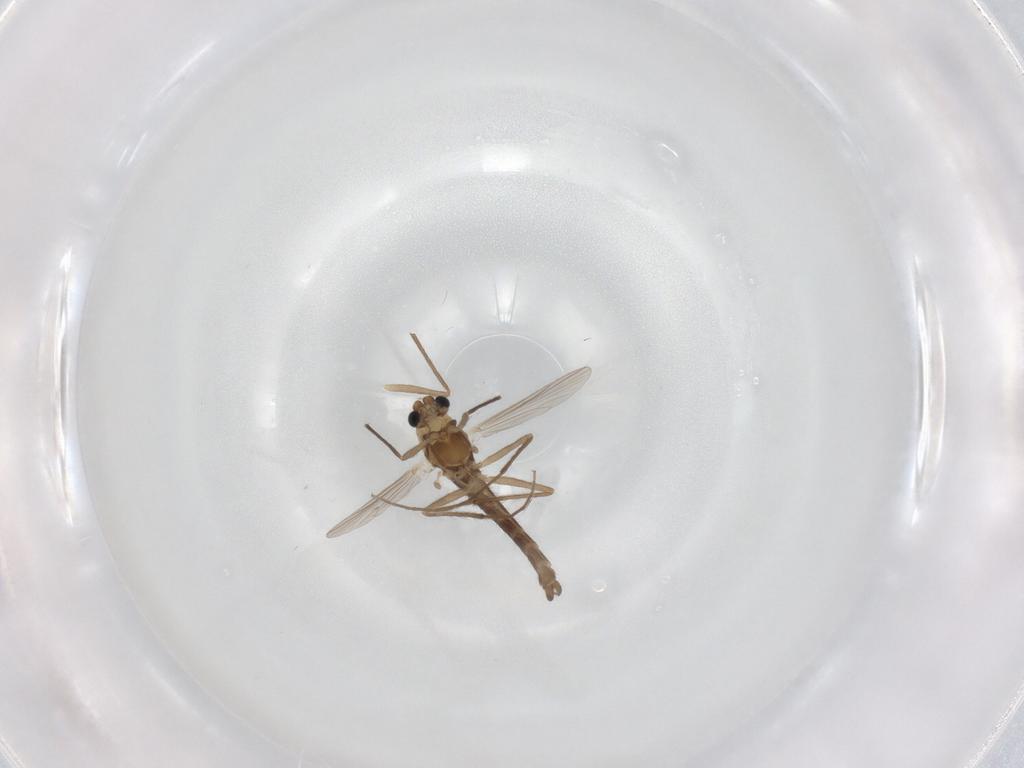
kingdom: Animalia
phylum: Arthropoda
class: Insecta
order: Diptera
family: Chironomidae
